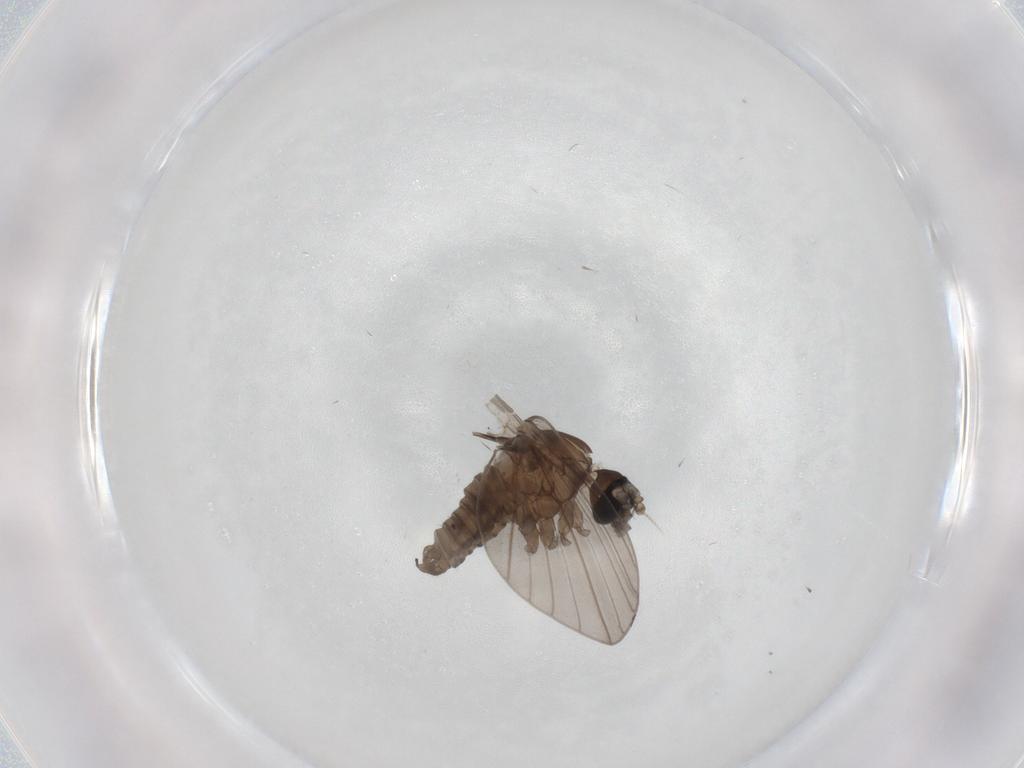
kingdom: Animalia
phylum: Arthropoda
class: Insecta
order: Diptera
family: Psychodidae
